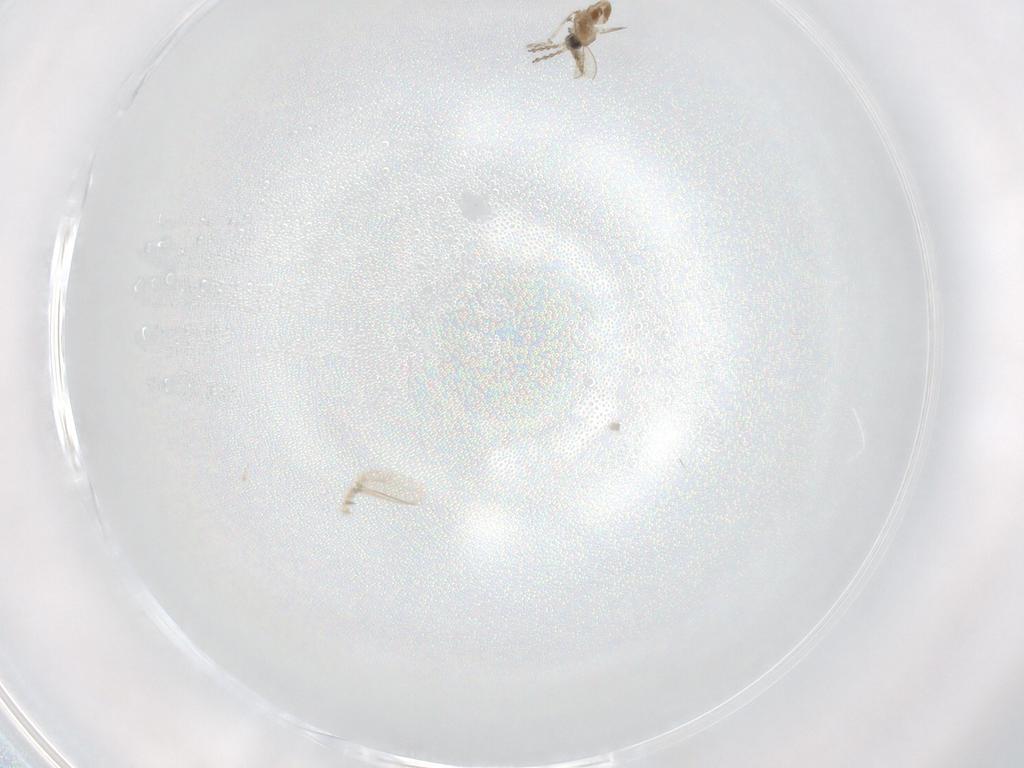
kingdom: Animalia
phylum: Arthropoda
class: Insecta
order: Diptera
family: Cecidomyiidae
